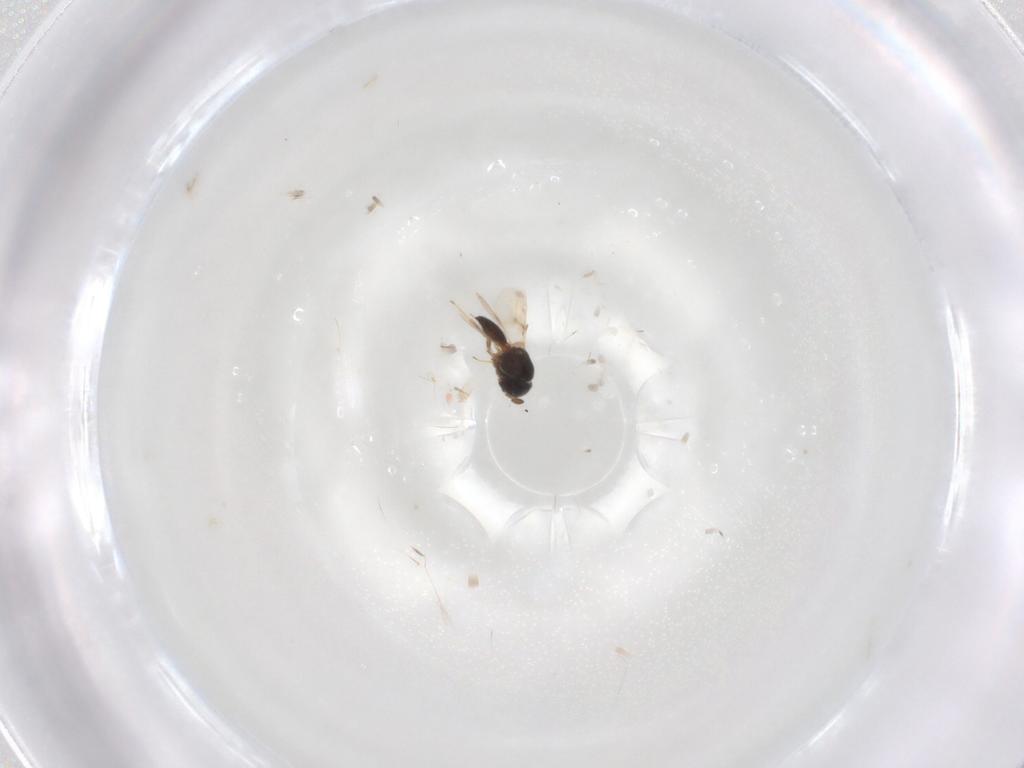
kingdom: Animalia
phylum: Arthropoda
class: Insecta
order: Hymenoptera
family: Scelionidae
